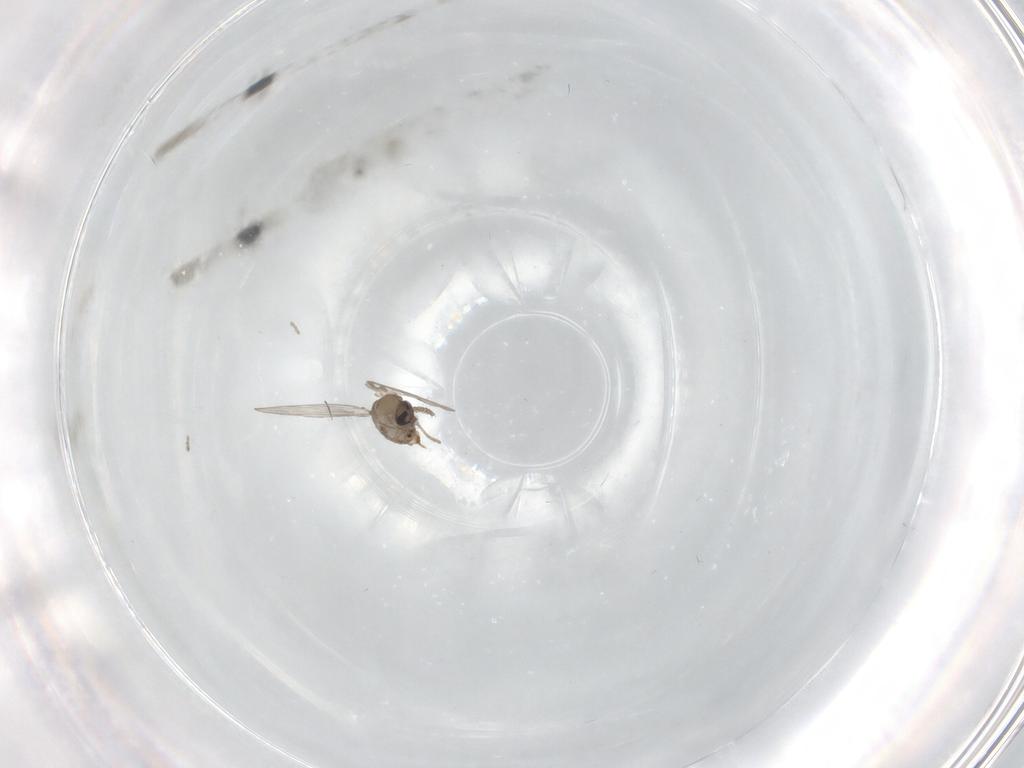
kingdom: Animalia
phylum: Arthropoda
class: Insecta
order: Diptera
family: Psychodidae
